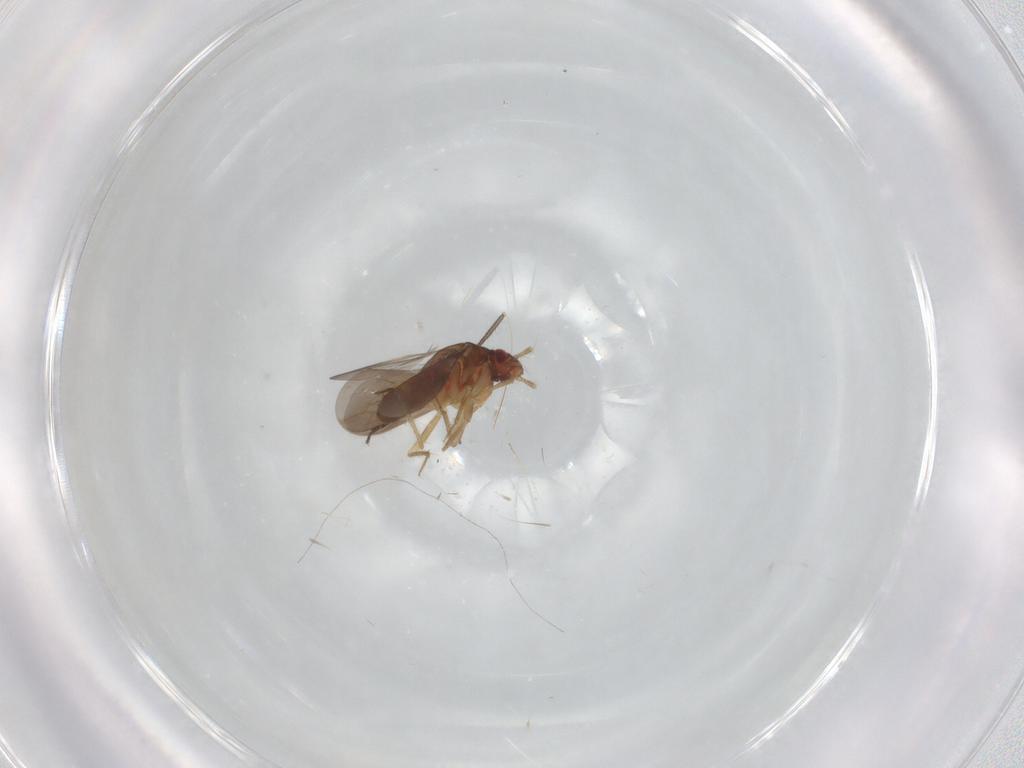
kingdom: Animalia
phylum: Arthropoda
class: Insecta
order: Hemiptera
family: Ceratocombidae
